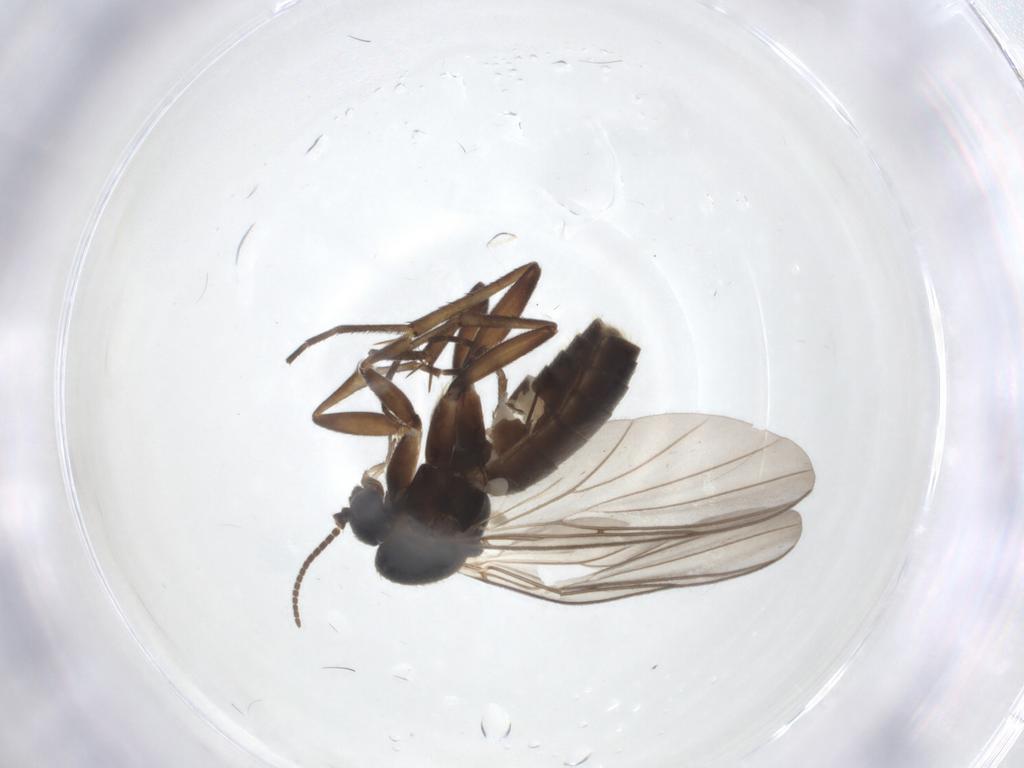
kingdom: Animalia
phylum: Arthropoda
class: Insecta
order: Diptera
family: Mycetophilidae
